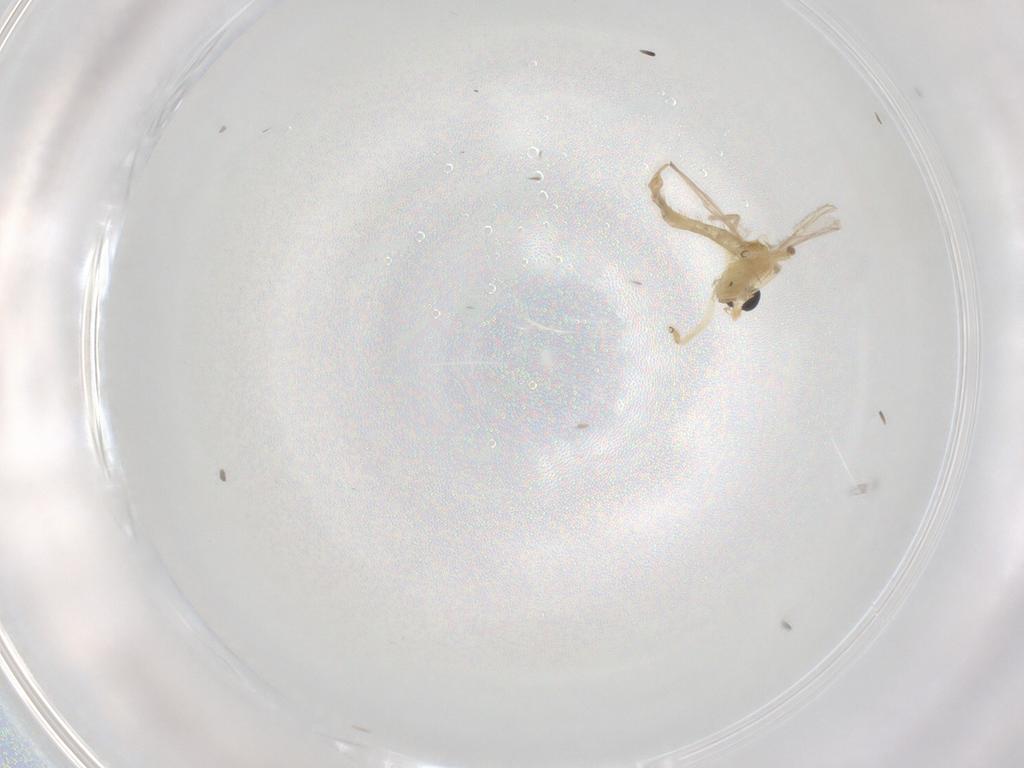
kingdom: Animalia
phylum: Arthropoda
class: Insecta
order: Diptera
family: Chironomidae
